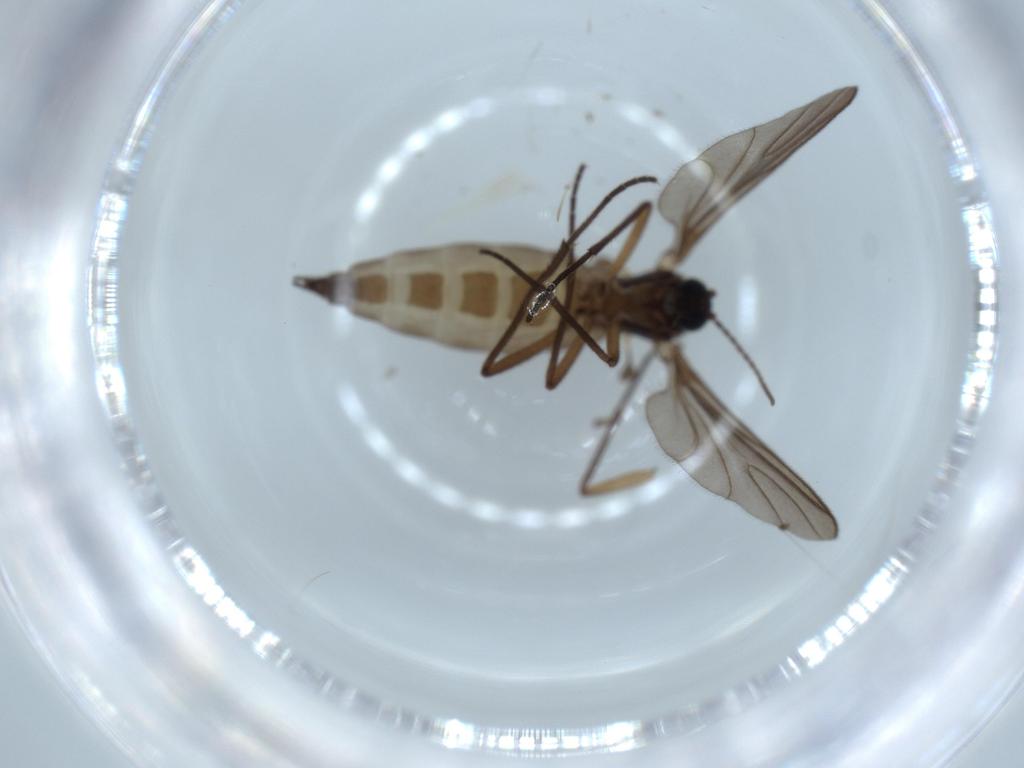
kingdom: Animalia
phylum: Arthropoda
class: Insecta
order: Diptera
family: Sciaridae
